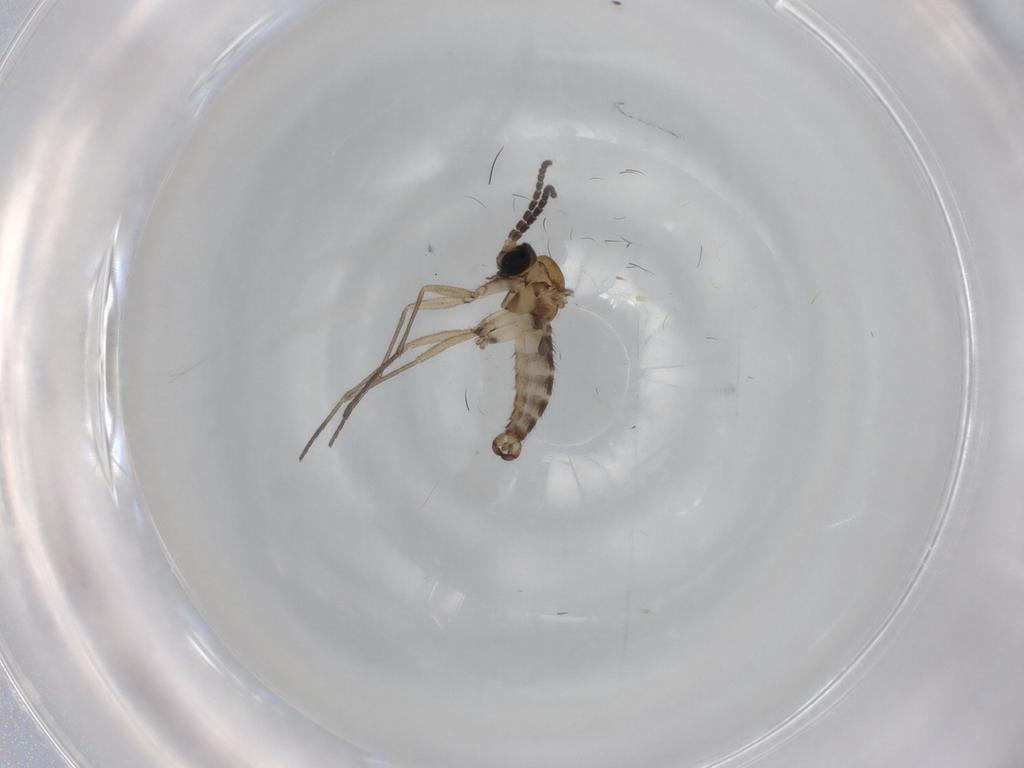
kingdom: Animalia
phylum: Arthropoda
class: Insecta
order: Diptera
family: Sciaridae
